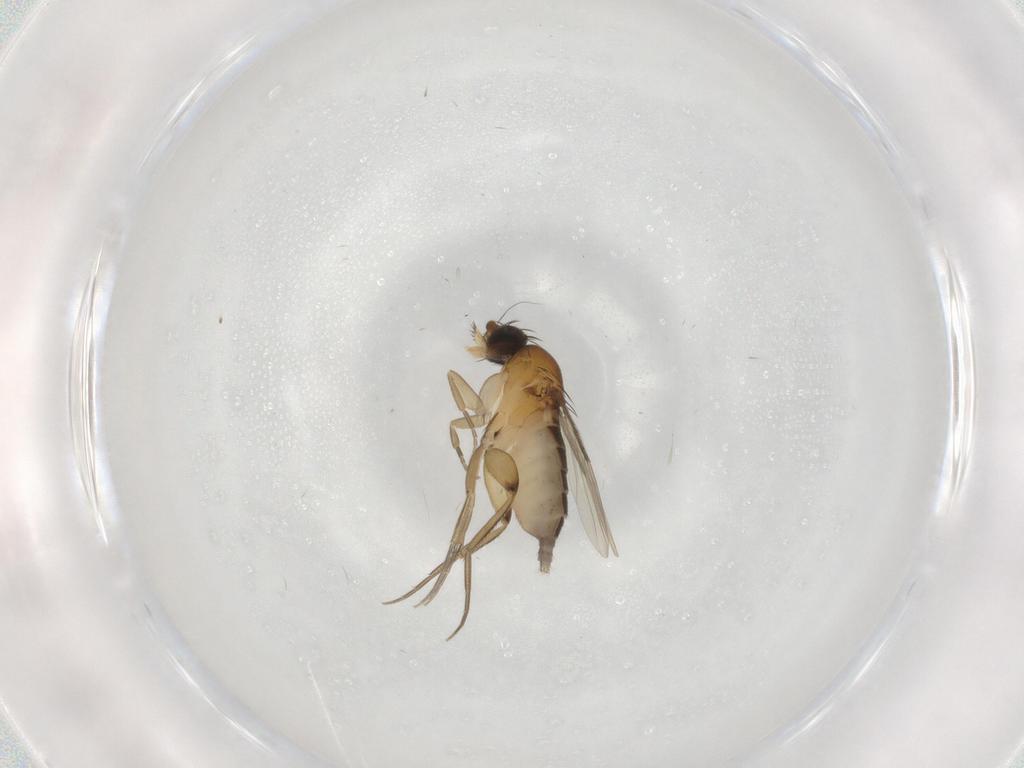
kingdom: Animalia
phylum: Arthropoda
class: Insecta
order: Diptera
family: Phoridae
